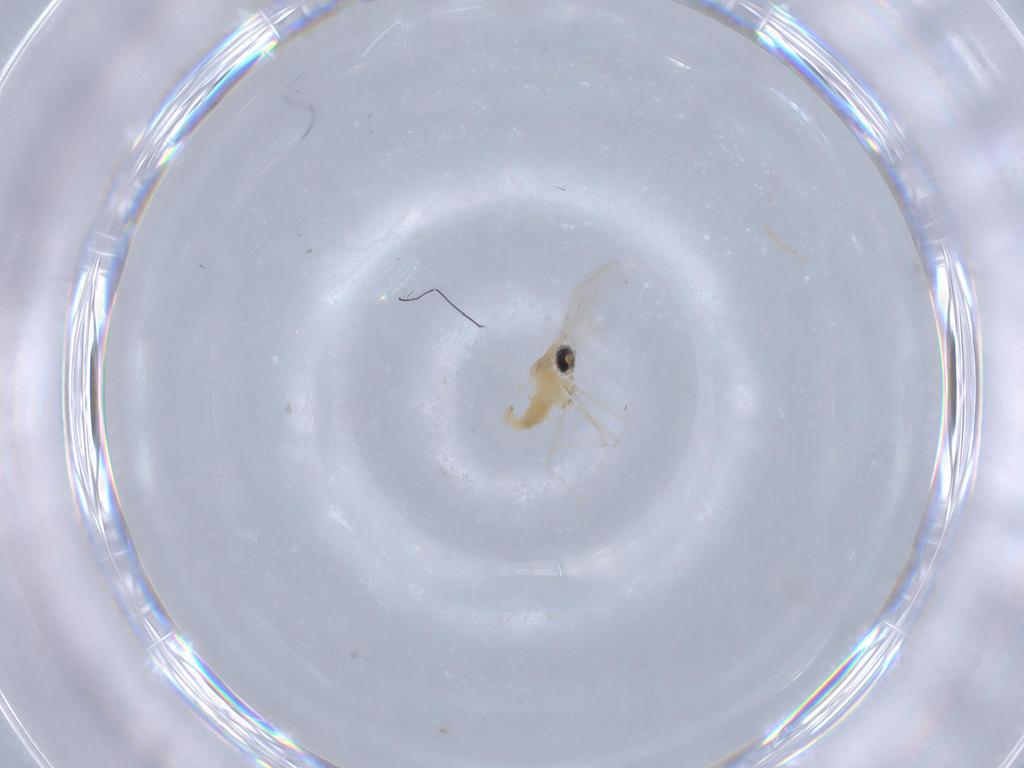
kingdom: Animalia
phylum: Arthropoda
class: Insecta
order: Diptera
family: Cecidomyiidae
